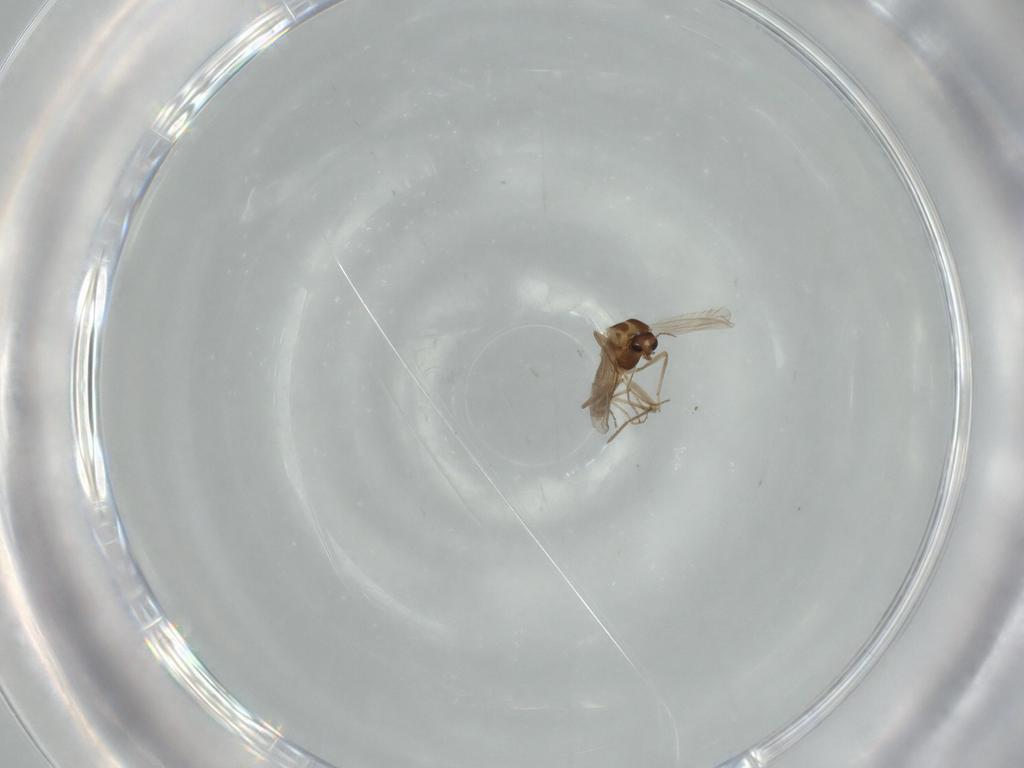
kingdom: Animalia
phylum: Arthropoda
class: Insecta
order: Diptera
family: Chironomidae
